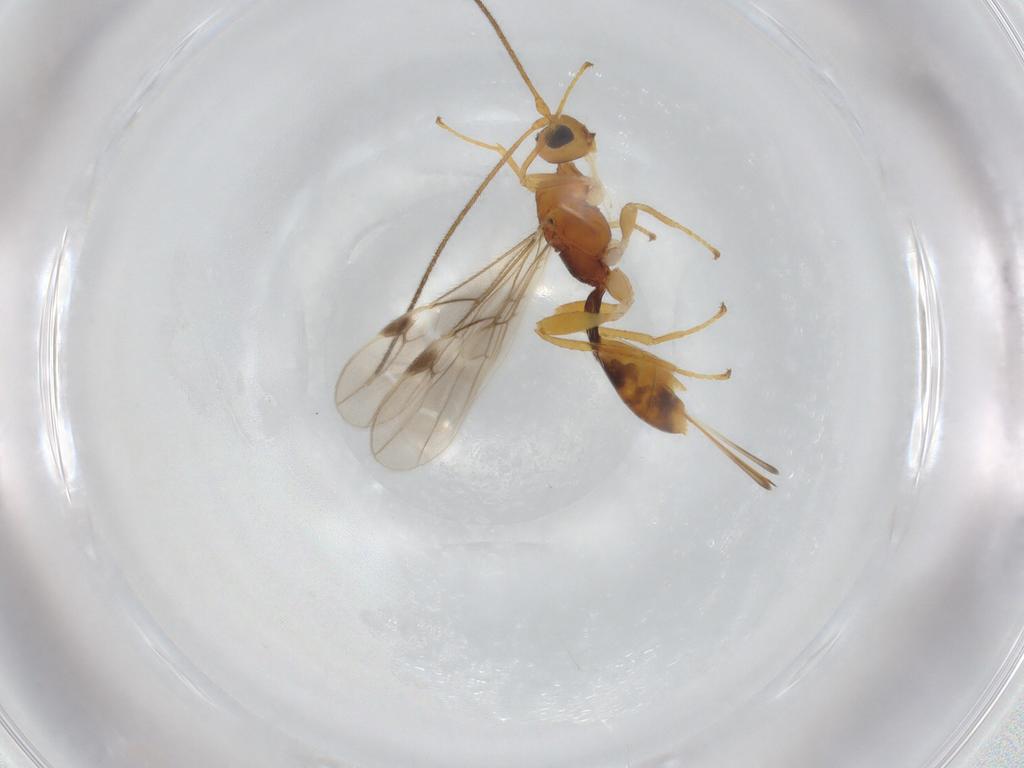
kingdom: Animalia
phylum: Arthropoda
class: Insecta
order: Hymenoptera
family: Braconidae
